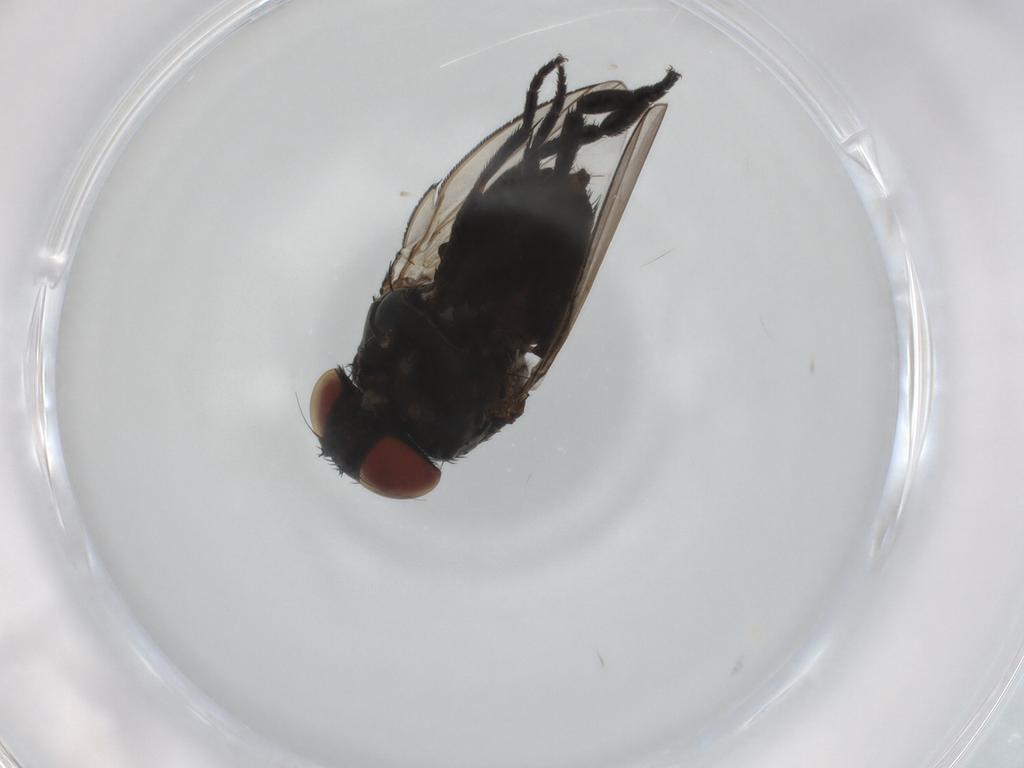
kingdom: Animalia
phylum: Arthropoda
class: Insecta
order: Diptera
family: Milichiidae
